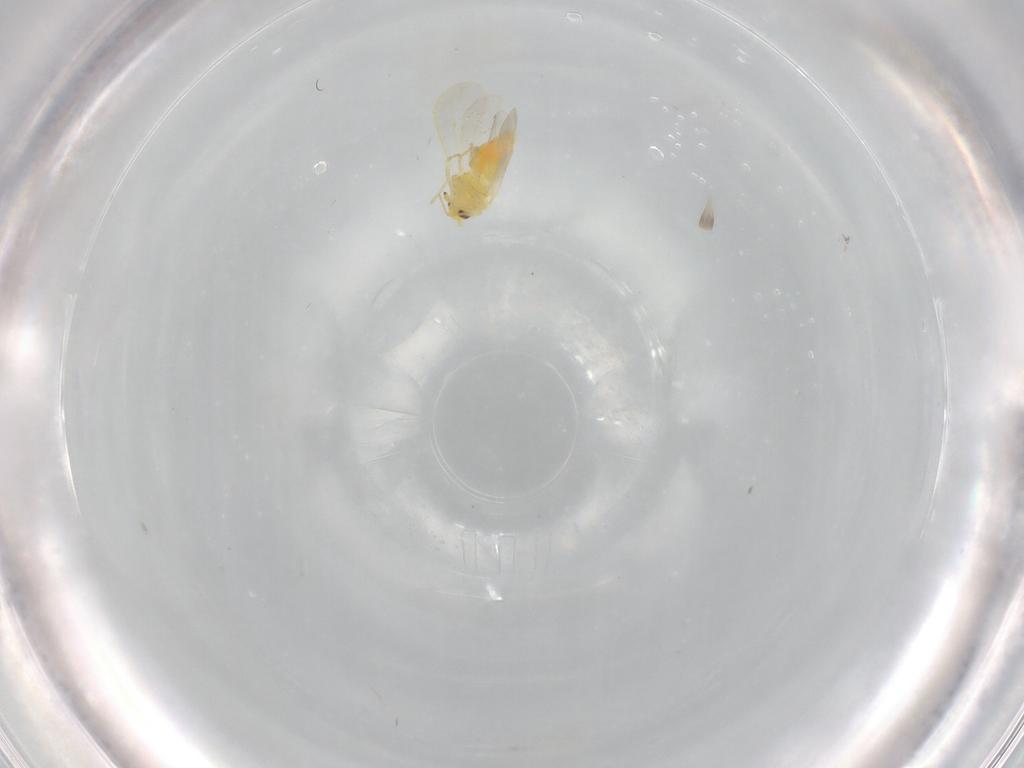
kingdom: Animalia
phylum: Arthropoda
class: Insecta
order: Hemiptera
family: Aleyrodidae
